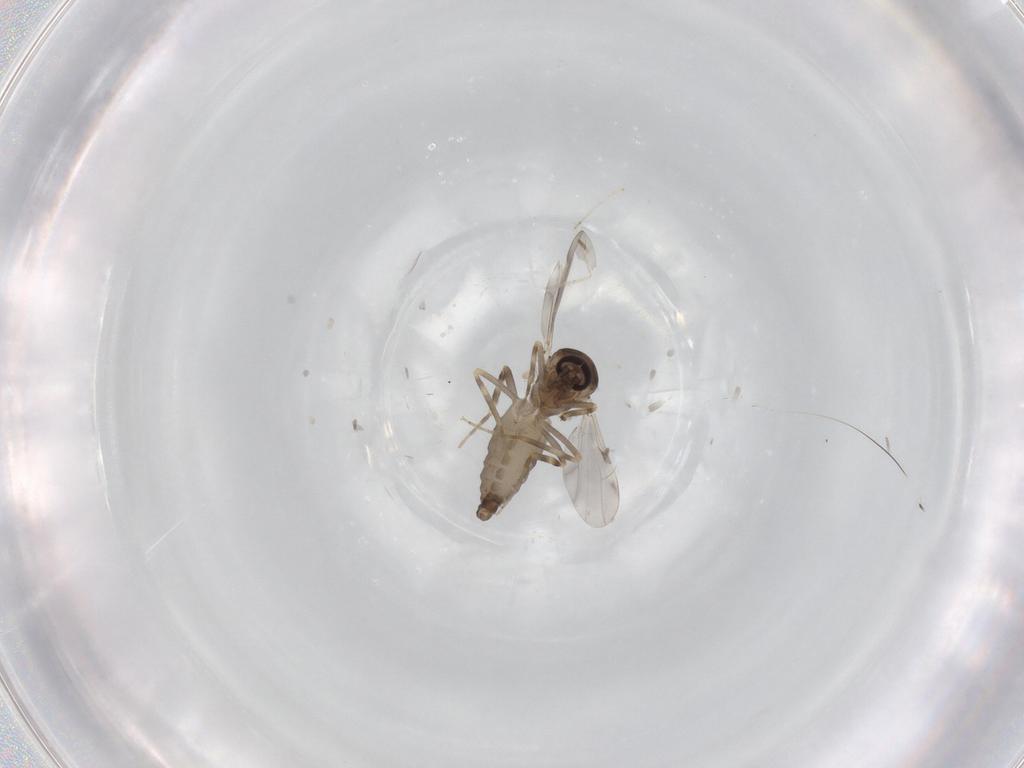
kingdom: Animalia
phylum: Arthropoda
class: Insecta
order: Diptera
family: Ceratopogonidae
